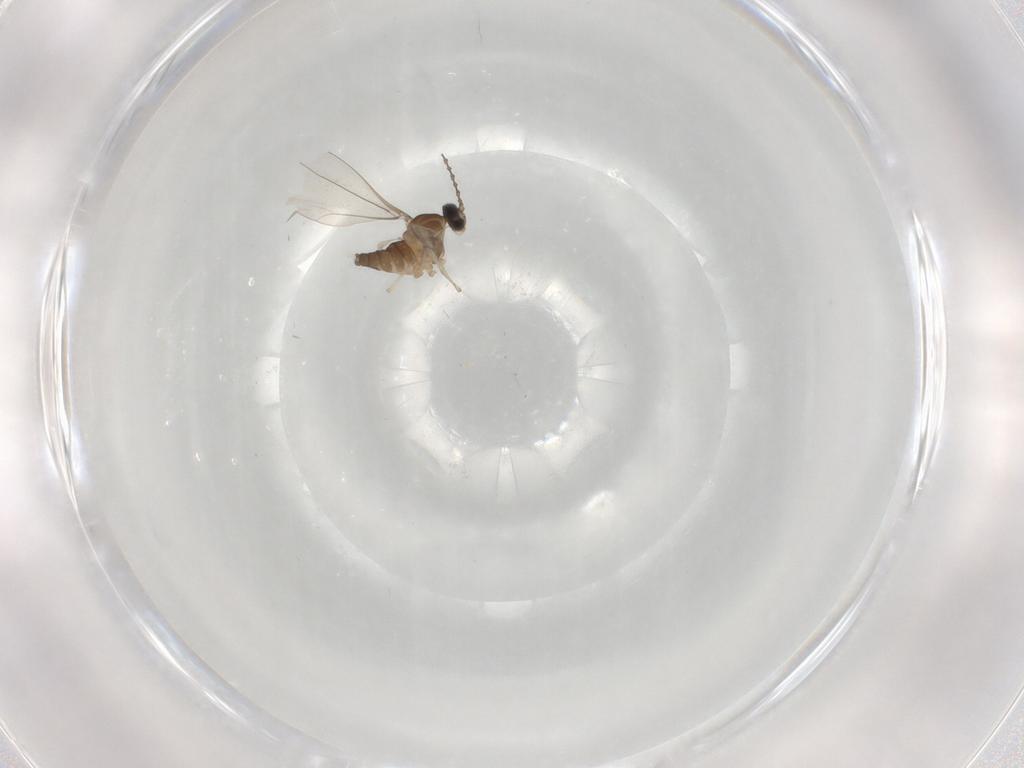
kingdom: Animalia
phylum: Arthropoda
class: Insecta
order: Diptera
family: Cecidomyiidae
